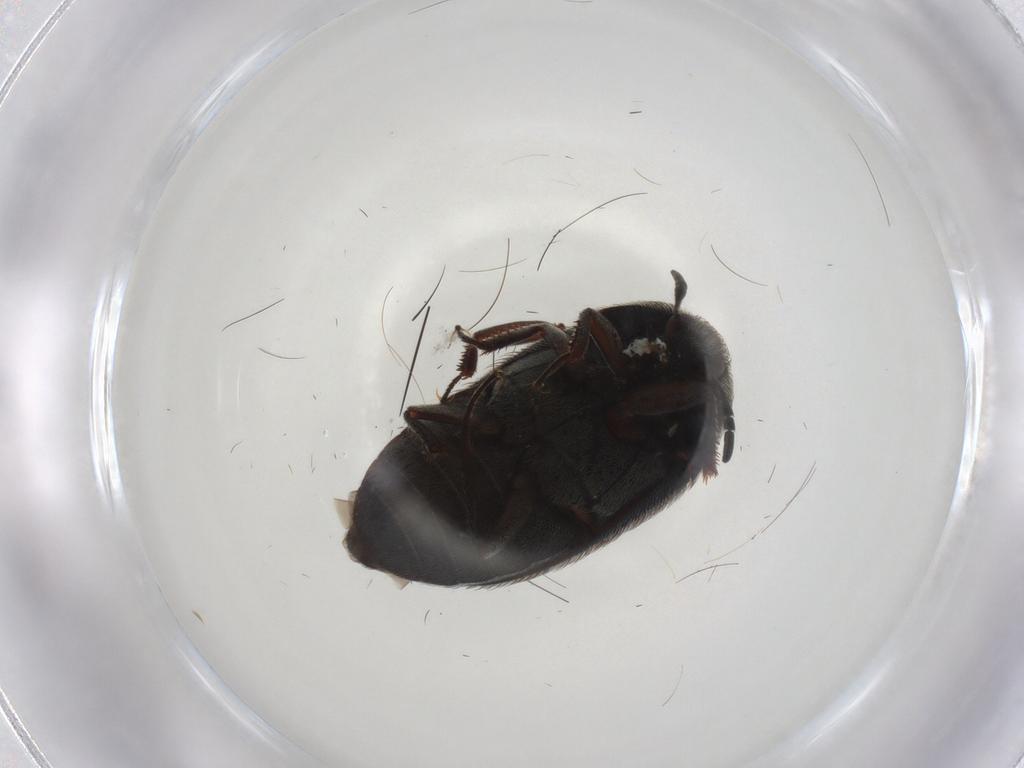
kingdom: Animalia
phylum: Arthropoda
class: Insecta
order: Coleoptera
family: Dermestidae
